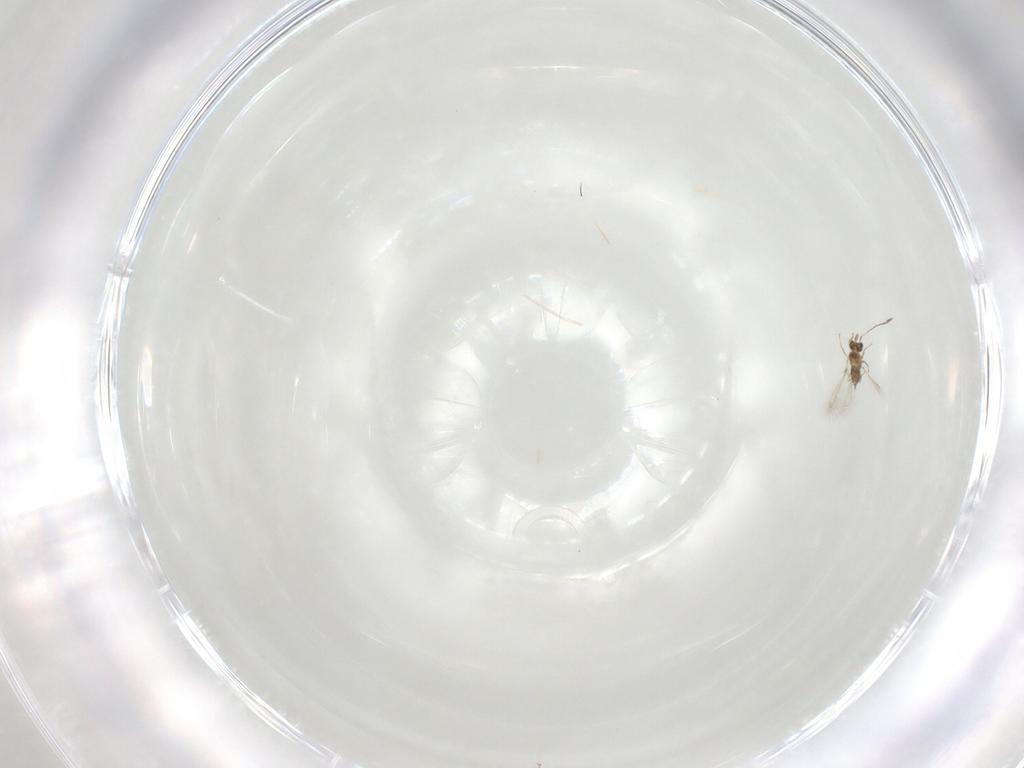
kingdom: Animalia
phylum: Arthropoda
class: Insecta
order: Hymenoptera
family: Mymaridae
